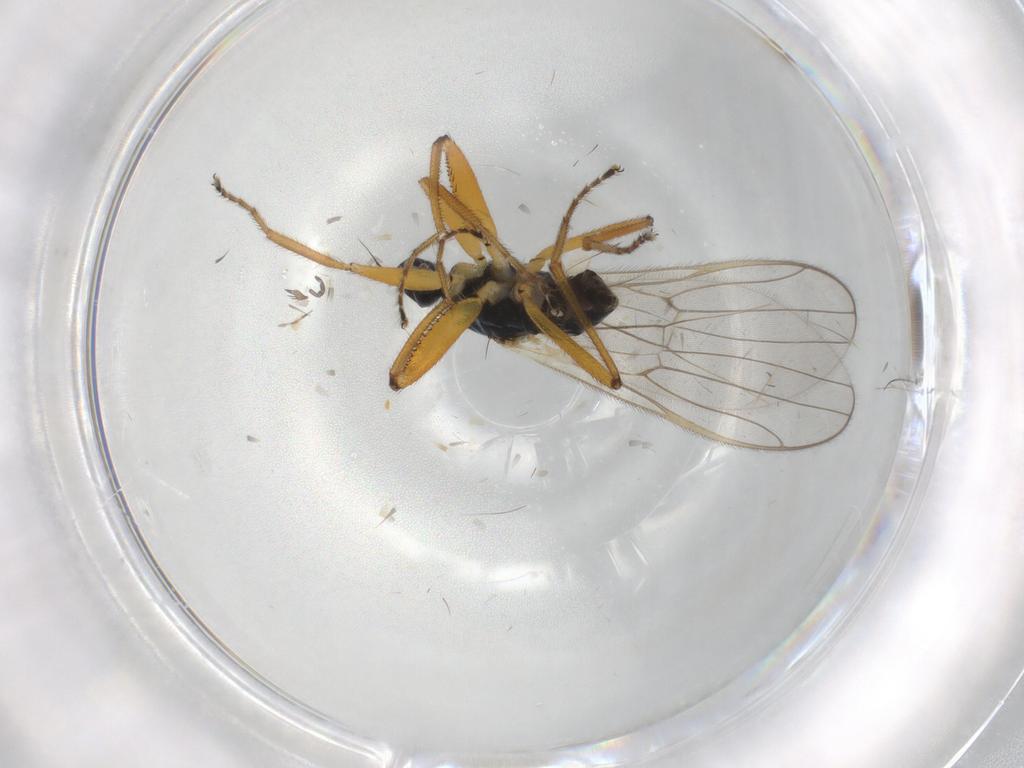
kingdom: Animalia
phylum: Arthropoda
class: Insecta
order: Diptera
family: Hybotidae
